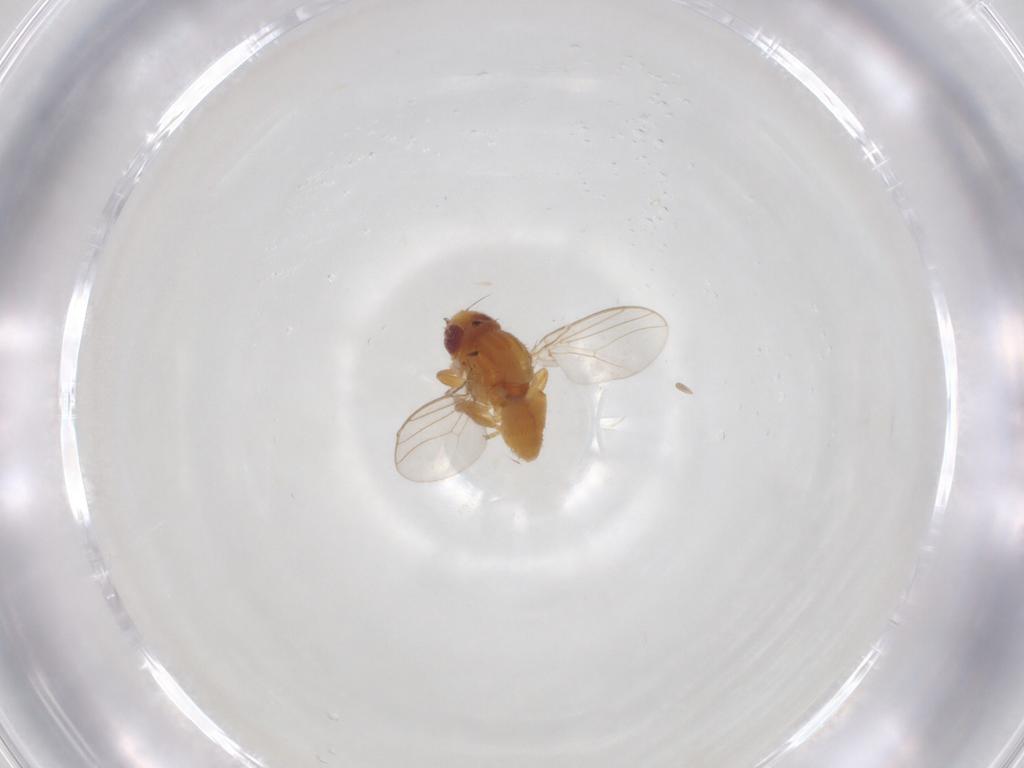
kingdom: Animalia
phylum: Arthropoda
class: Insecta
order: Diptera
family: Chloropidae
